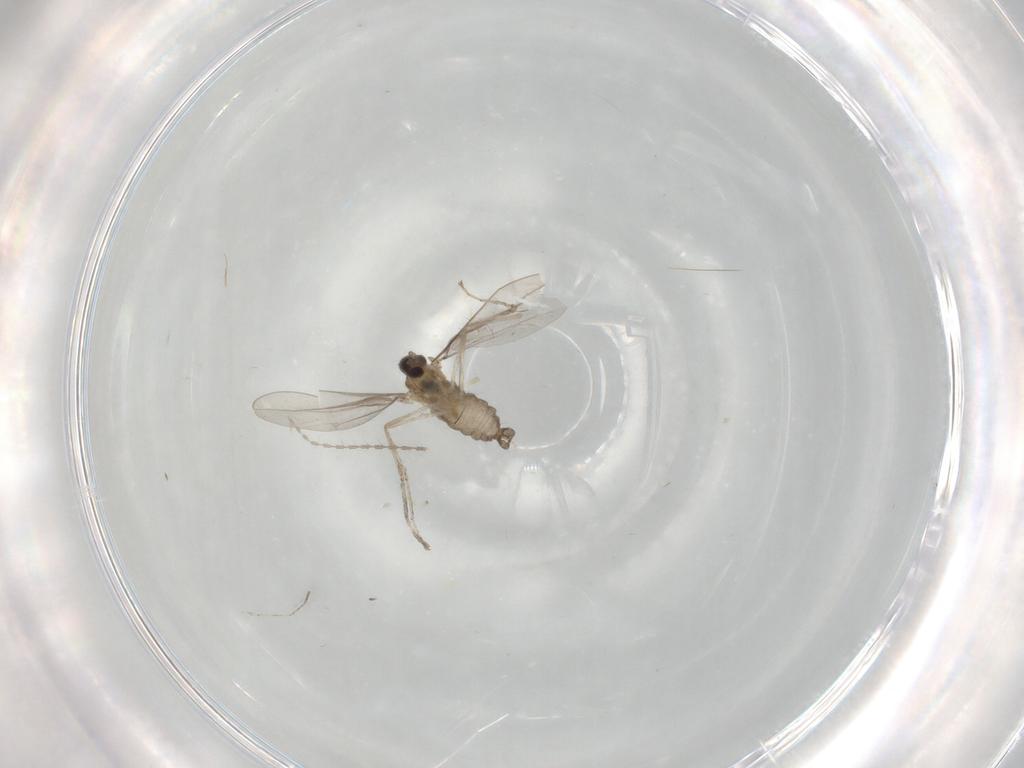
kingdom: Animalia
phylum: Arthropoda
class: Insecta
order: Diptera
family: Cecidomyiidae
